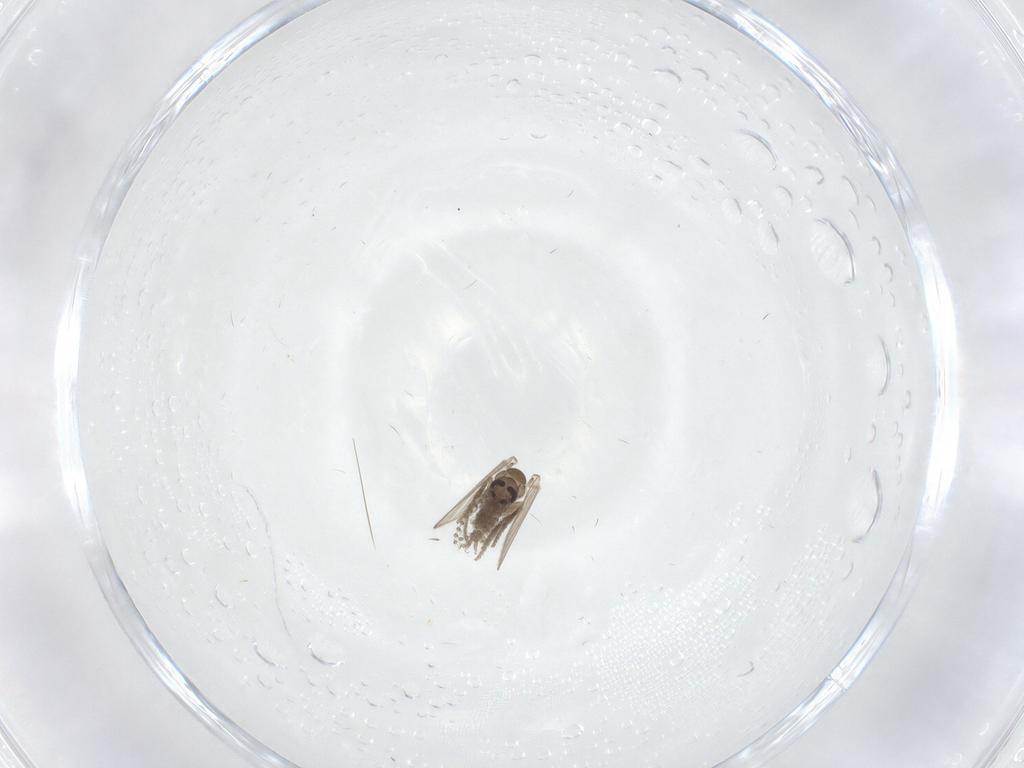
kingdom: Animalia
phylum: Arthropoda
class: Insecta
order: Diptera
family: Psychodidae
